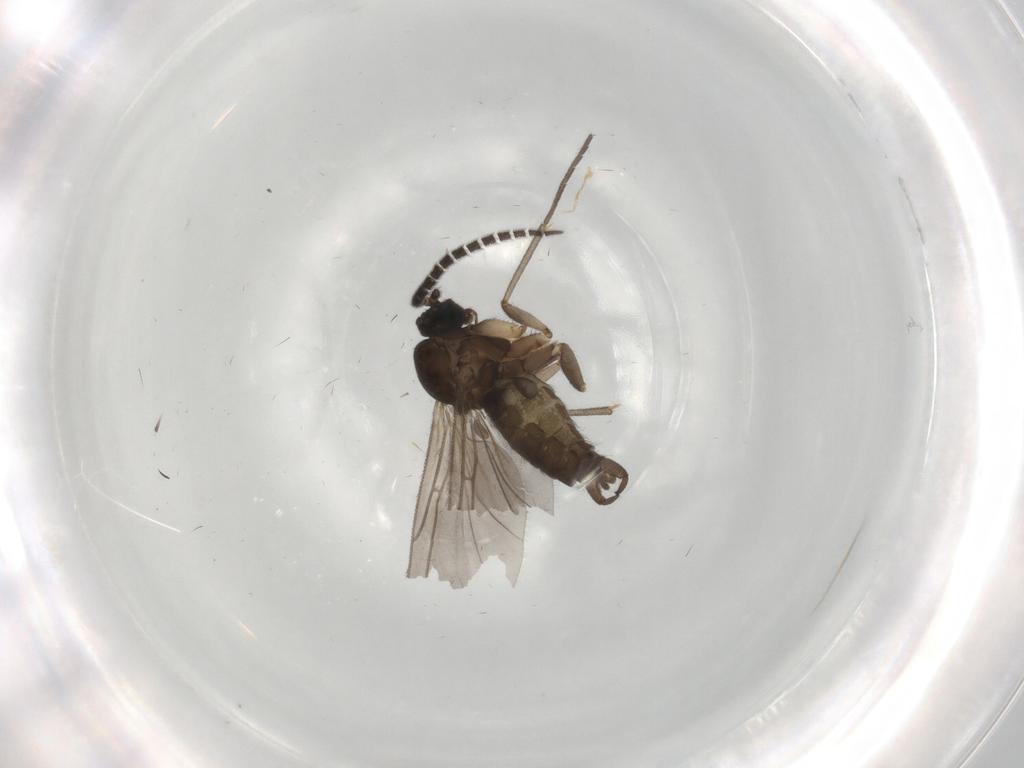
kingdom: Animalia
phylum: Arthropoda
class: Insecta
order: Diptera
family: Sciaridae
